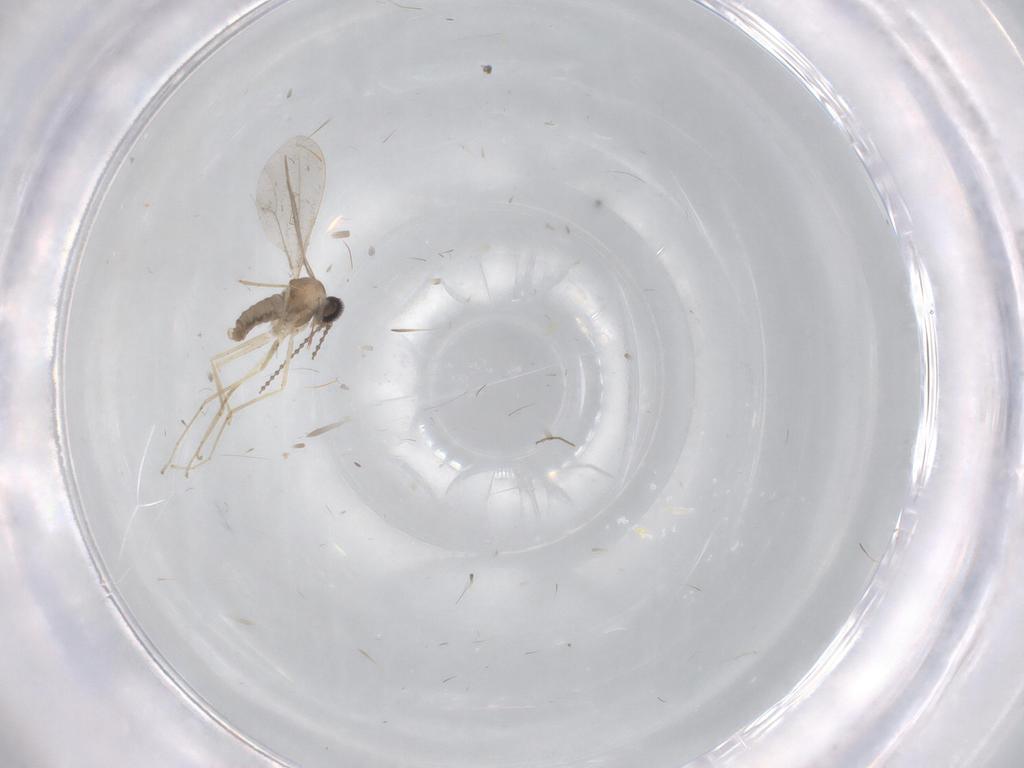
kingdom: Animalia
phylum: Arthropoda
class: Insecta
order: Diptera
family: Cecidomyiidae
